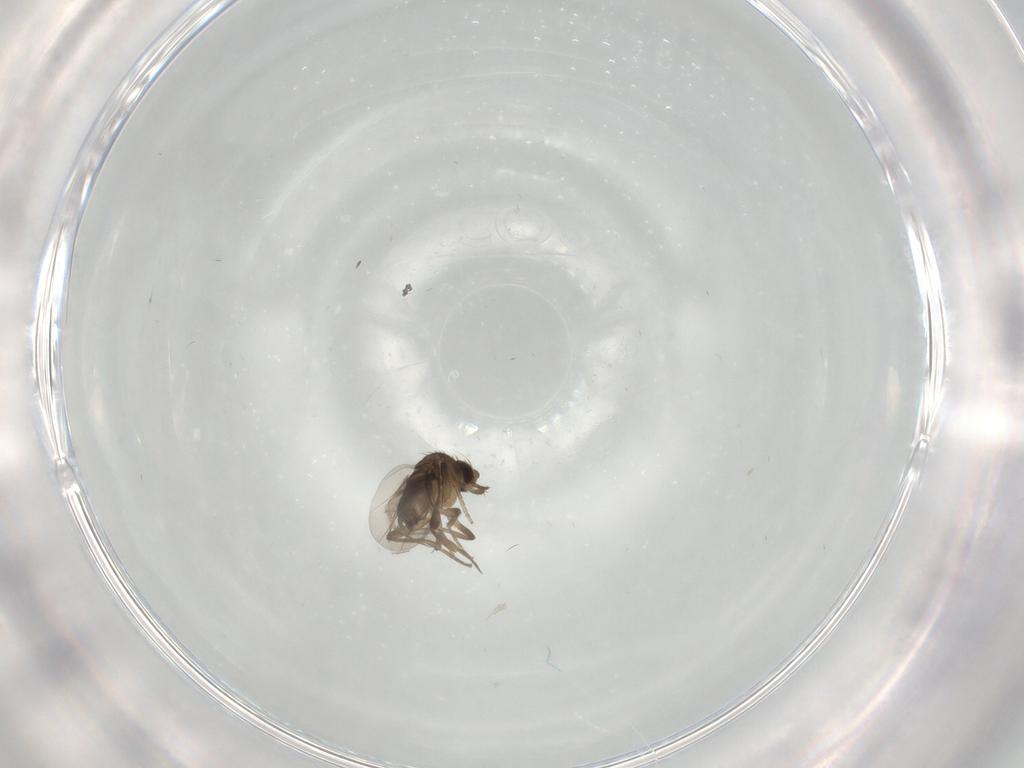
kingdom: Animalia
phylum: Arthropoda
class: Insecta
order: Diptera
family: Phoridae
